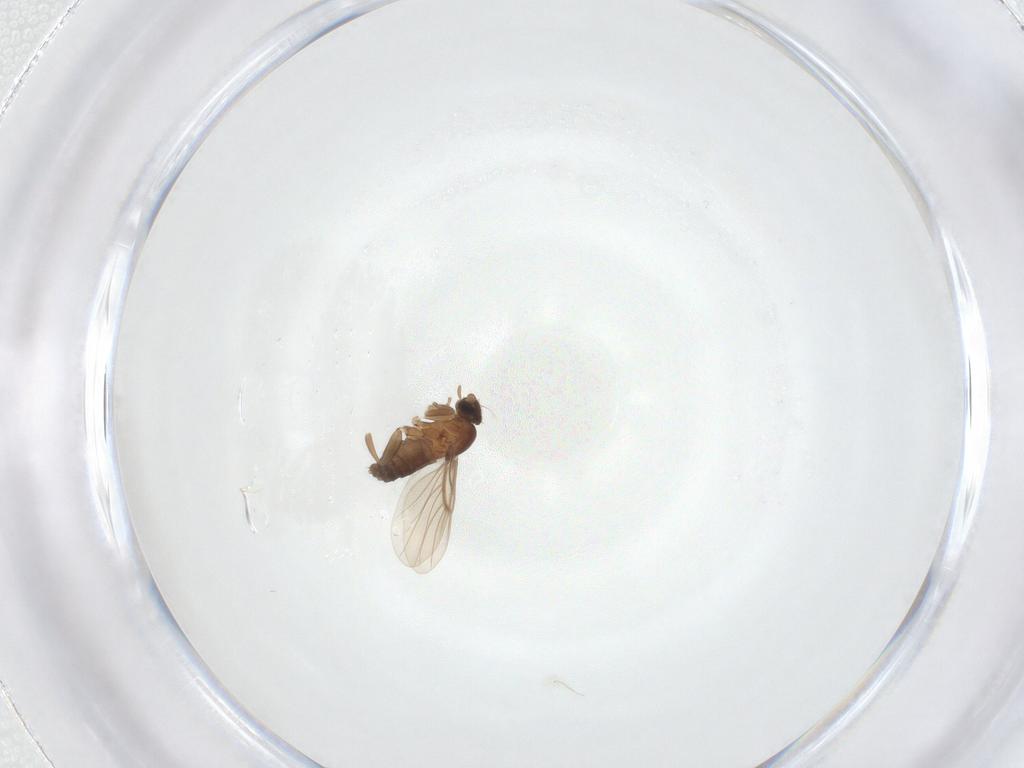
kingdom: Animalia
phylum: Arthropoda
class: Insecta
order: Diptera
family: Phoridae
